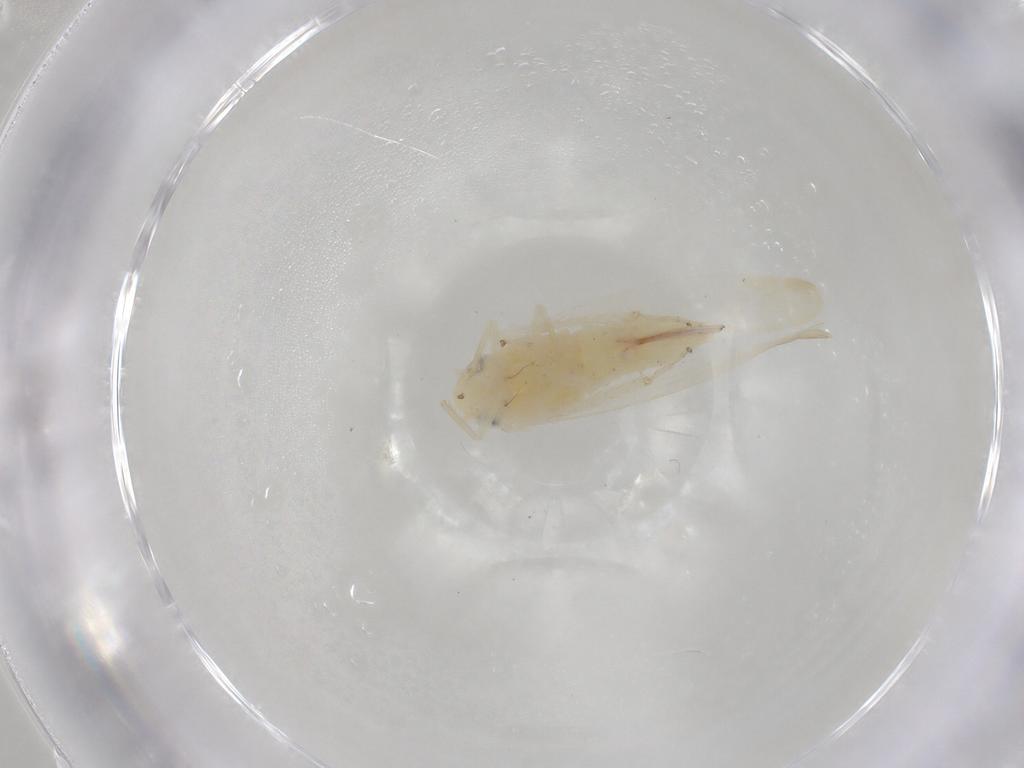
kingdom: Animalia
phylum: Arthropoda
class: Insecta
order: Hemiptera
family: Cicadellidae
